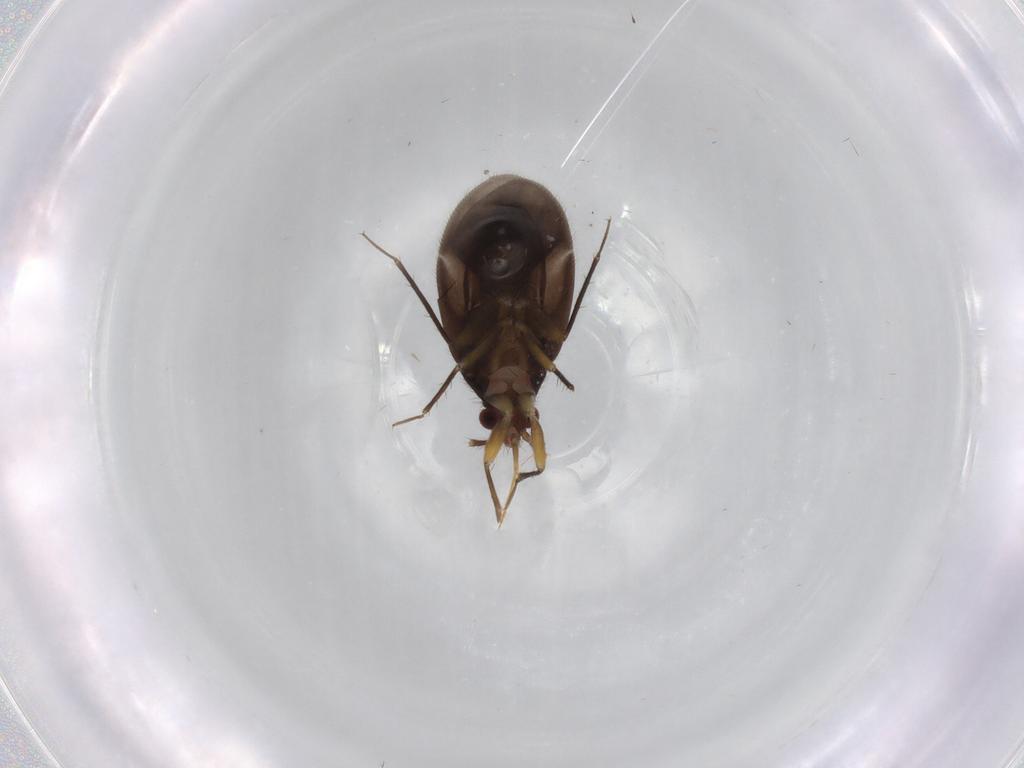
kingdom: Animalia
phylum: Arthropoda
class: Insecta
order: Hemiptera
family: Ceratocombidae
